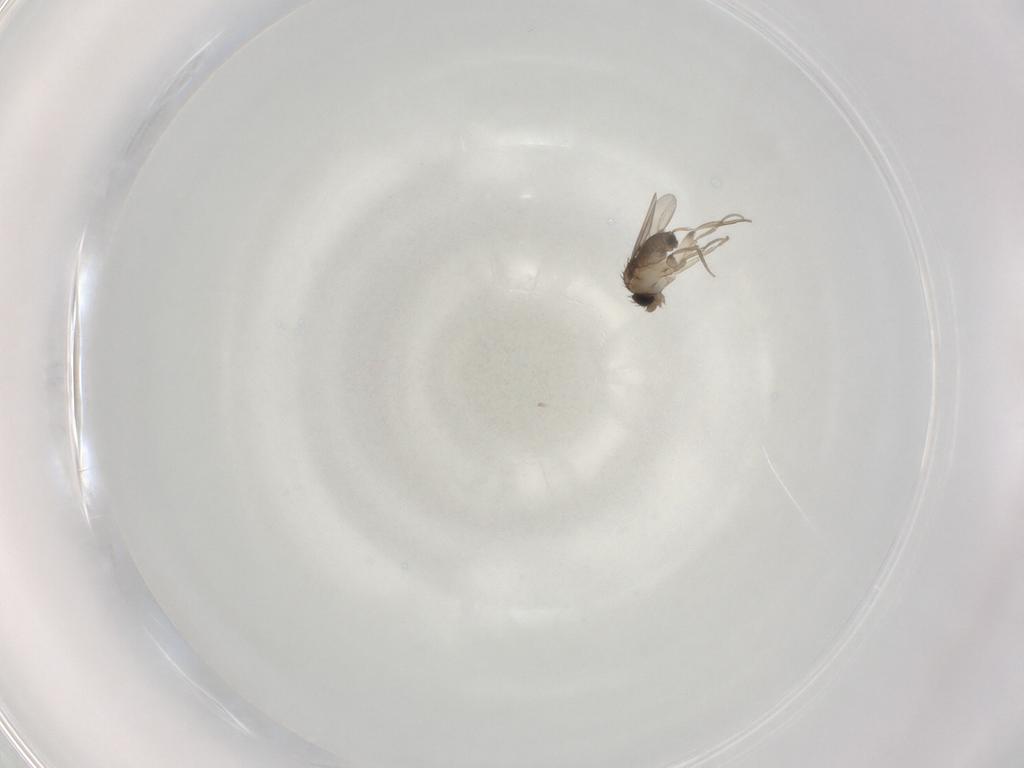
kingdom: Animalia
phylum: Arthropoda
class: Insecta
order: Diptera
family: Phoridae
